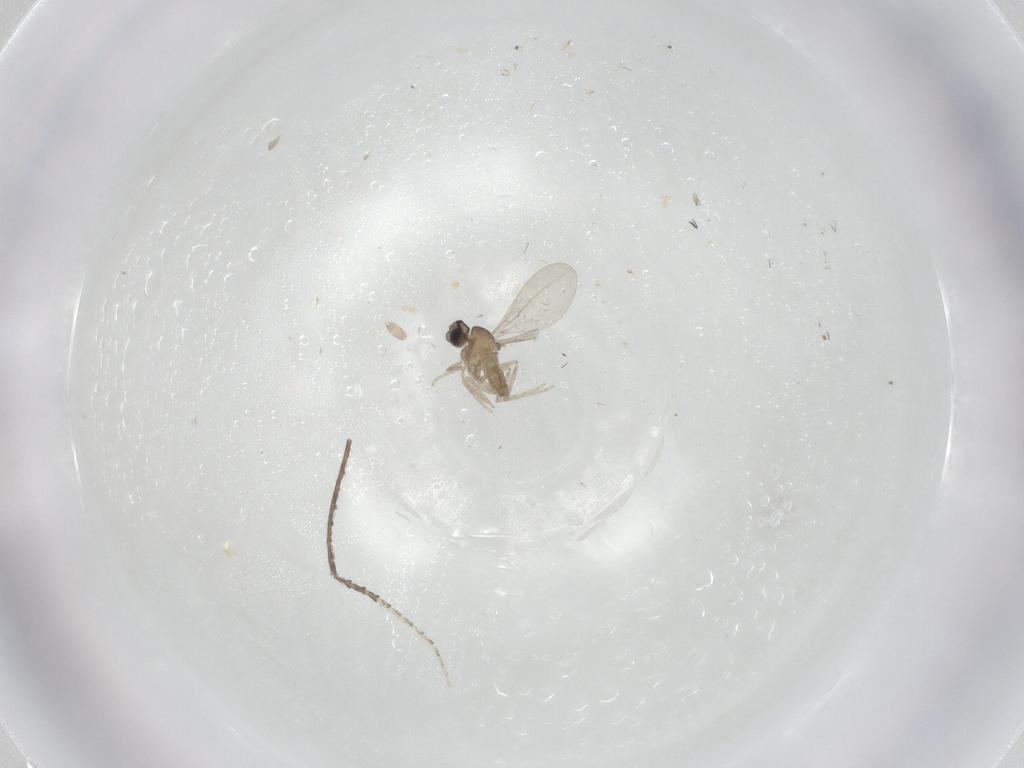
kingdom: Animalia
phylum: Arthropoda
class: Insecta
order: Diptera
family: Cecidomyiidae
